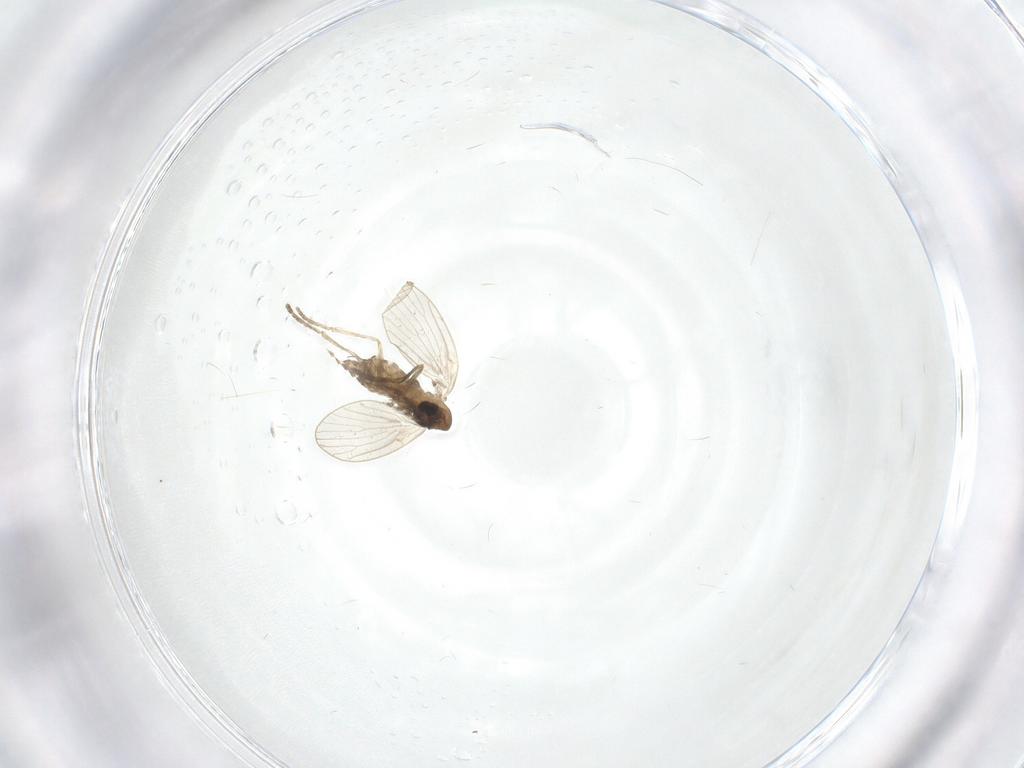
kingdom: Animalia
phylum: Arthropoda
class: Insecta
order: Diptera
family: Psychodidae
